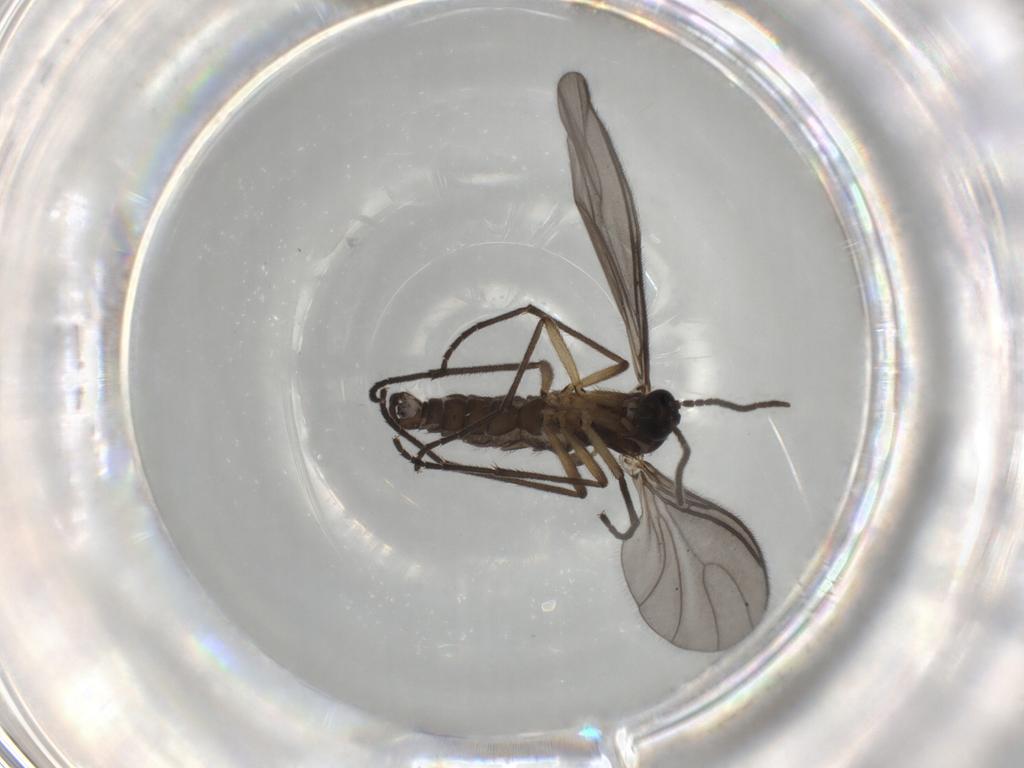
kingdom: Animalia
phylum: Arthropoda
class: Insecta
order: Diptera
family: Sciaridae
